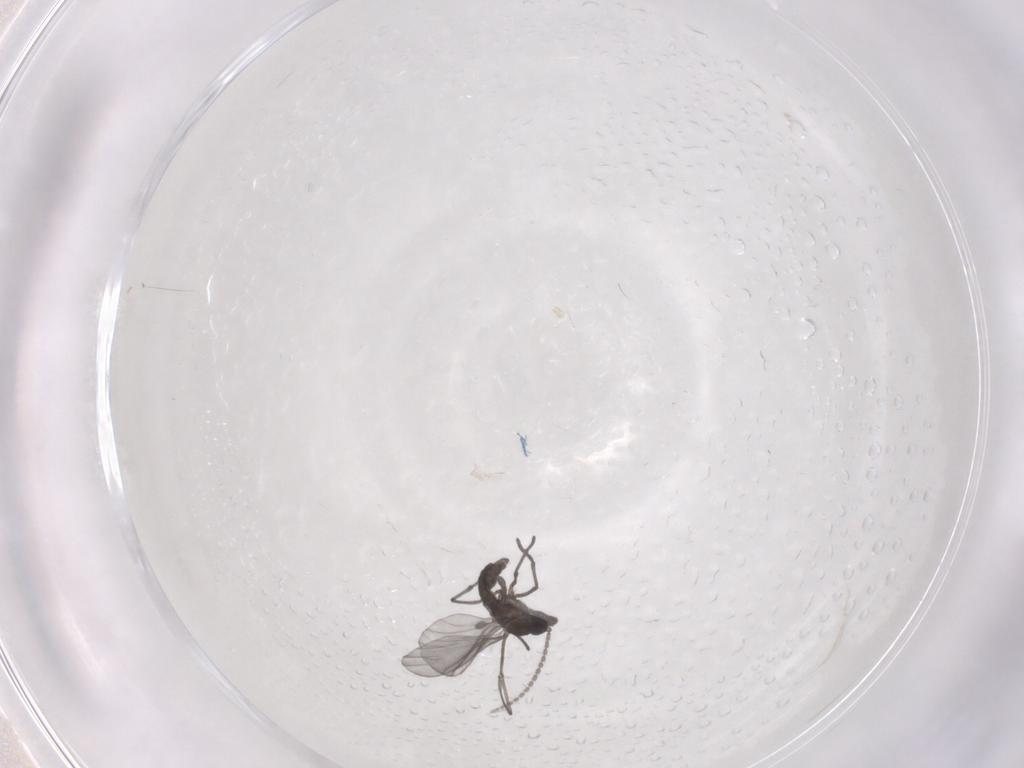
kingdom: Animalia
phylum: Arthropoda
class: Insecta
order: Diptera
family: Sciaridae
